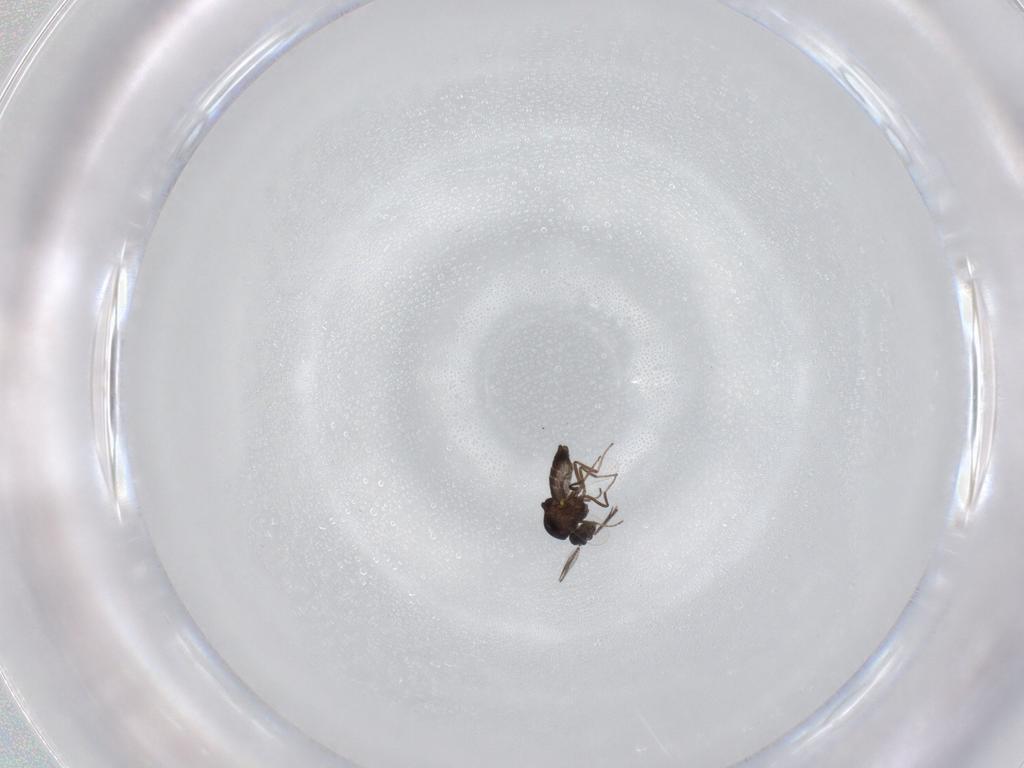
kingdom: Animalia
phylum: Arthropoda
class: Insecta
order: Diptera
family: Ceratopogonidae
